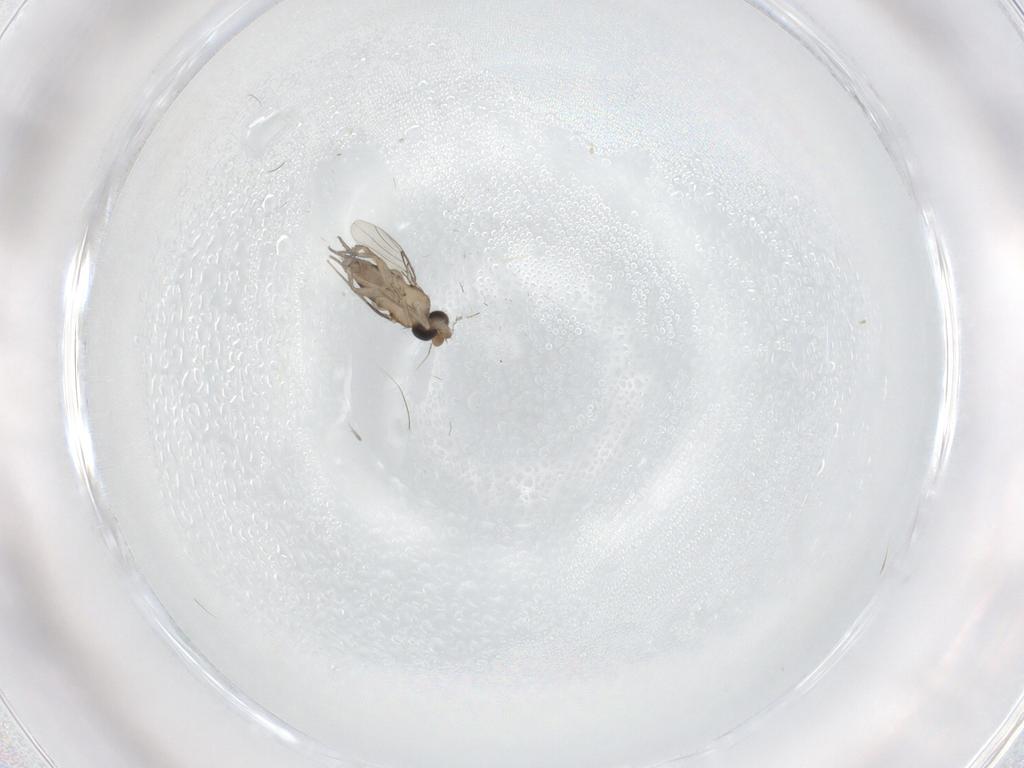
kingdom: Animalia
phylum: Arthropoda
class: Insecta
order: Diptera
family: Phoridae
